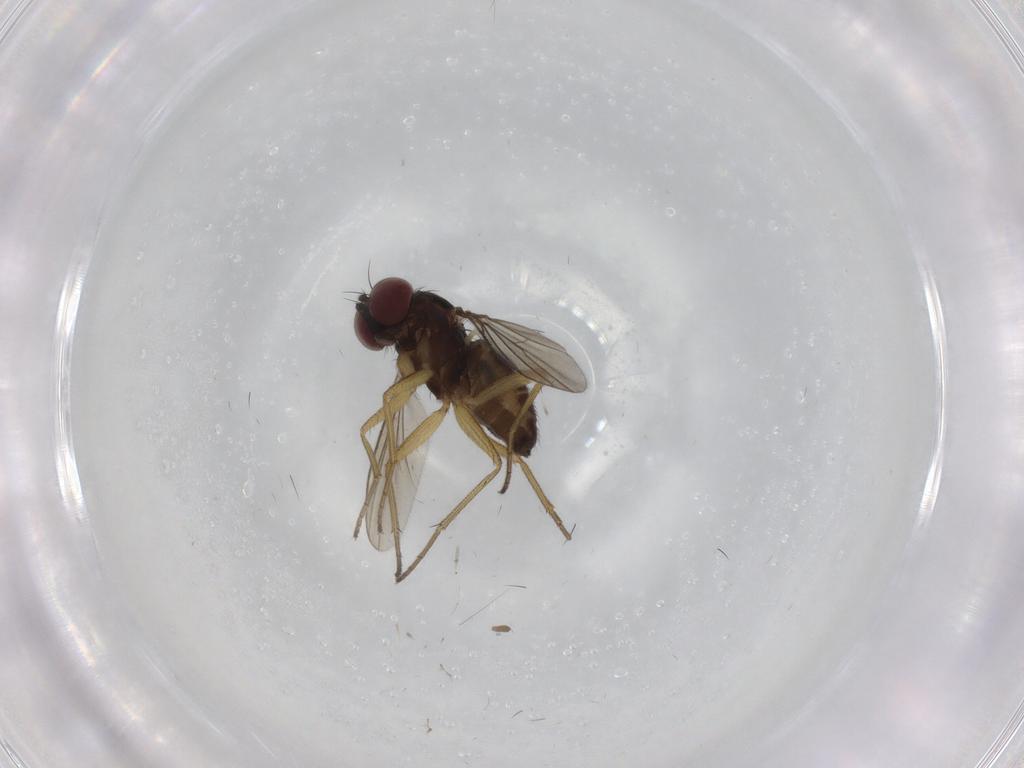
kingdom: Animalia
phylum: Arthropoda
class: Insecta
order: Diptera
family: Dolichopodidae
